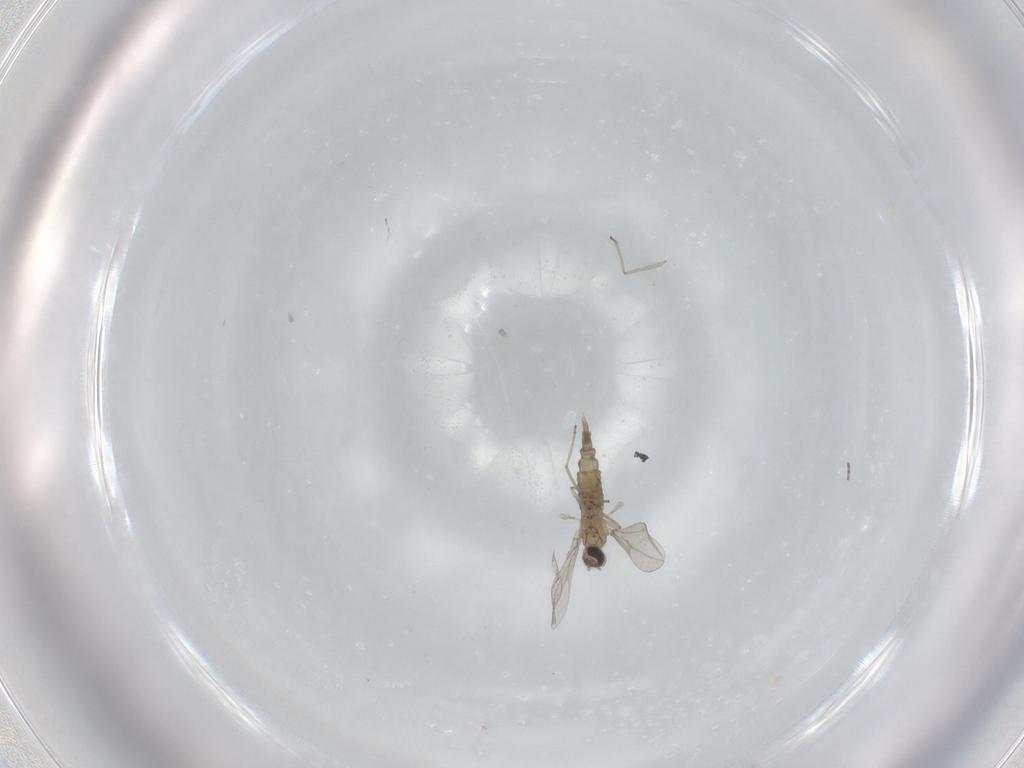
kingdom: Animalia
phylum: Arthropoda
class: Insecta
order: Diptera
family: Cecidomyiidae
